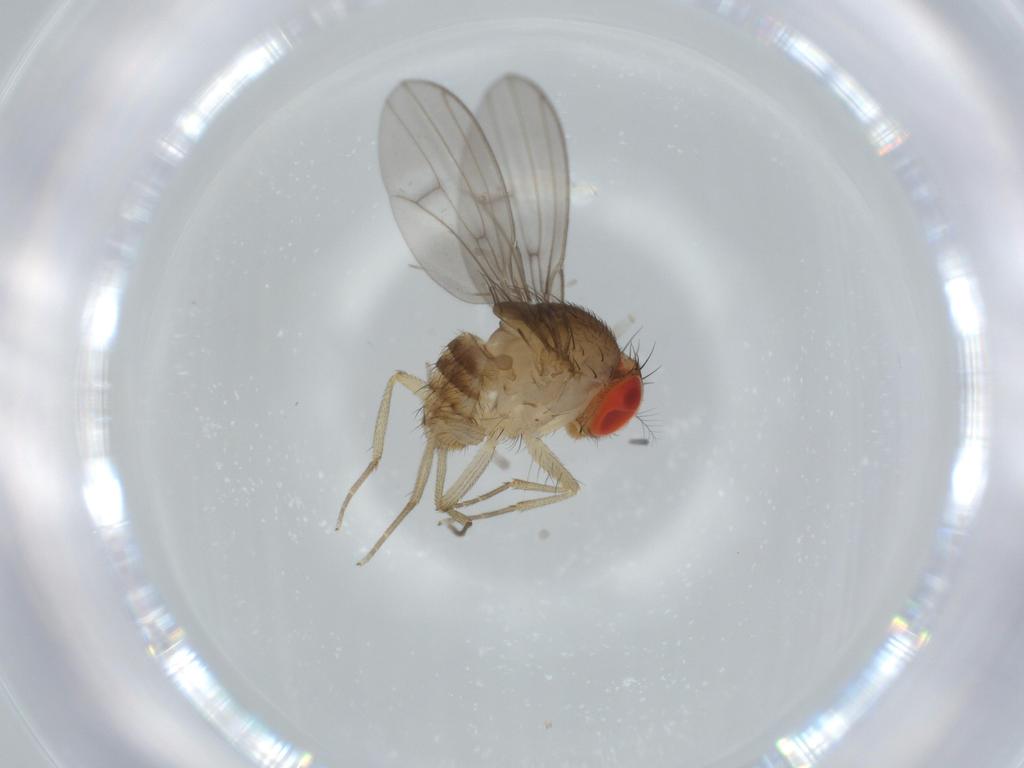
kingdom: Animalia
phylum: Arthropoda
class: Insecta
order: Diptera
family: Drosophilidae
